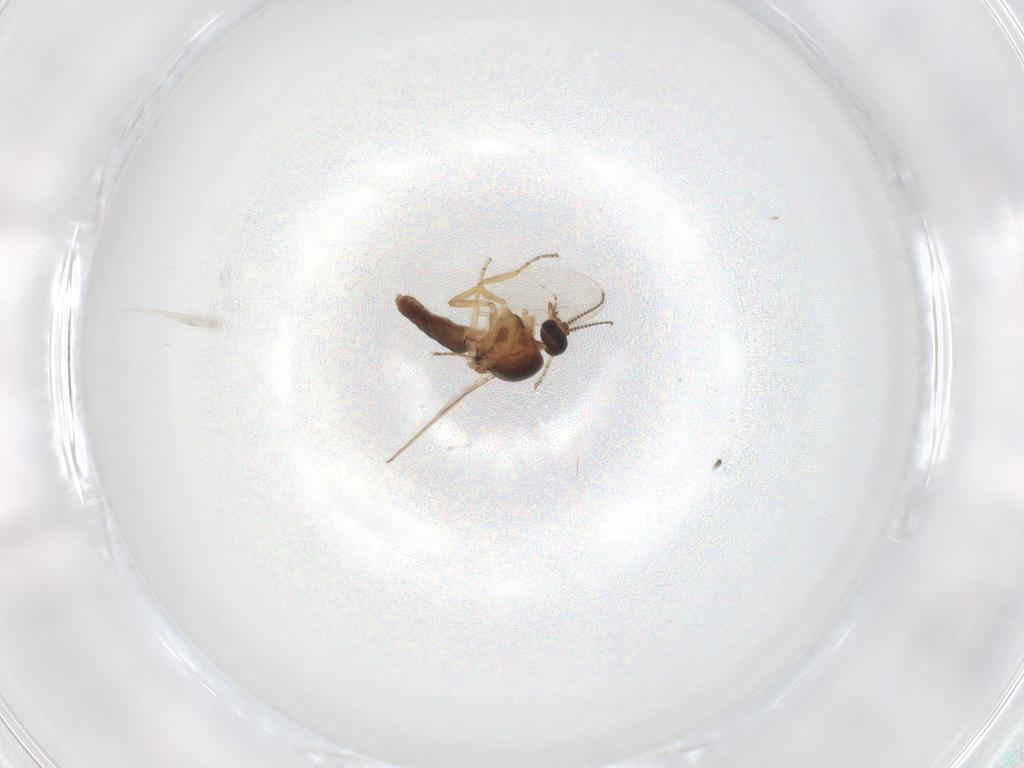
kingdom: Animalia
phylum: Arthropoda
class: Insecta
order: Diptera
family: Ceratopogonidae
